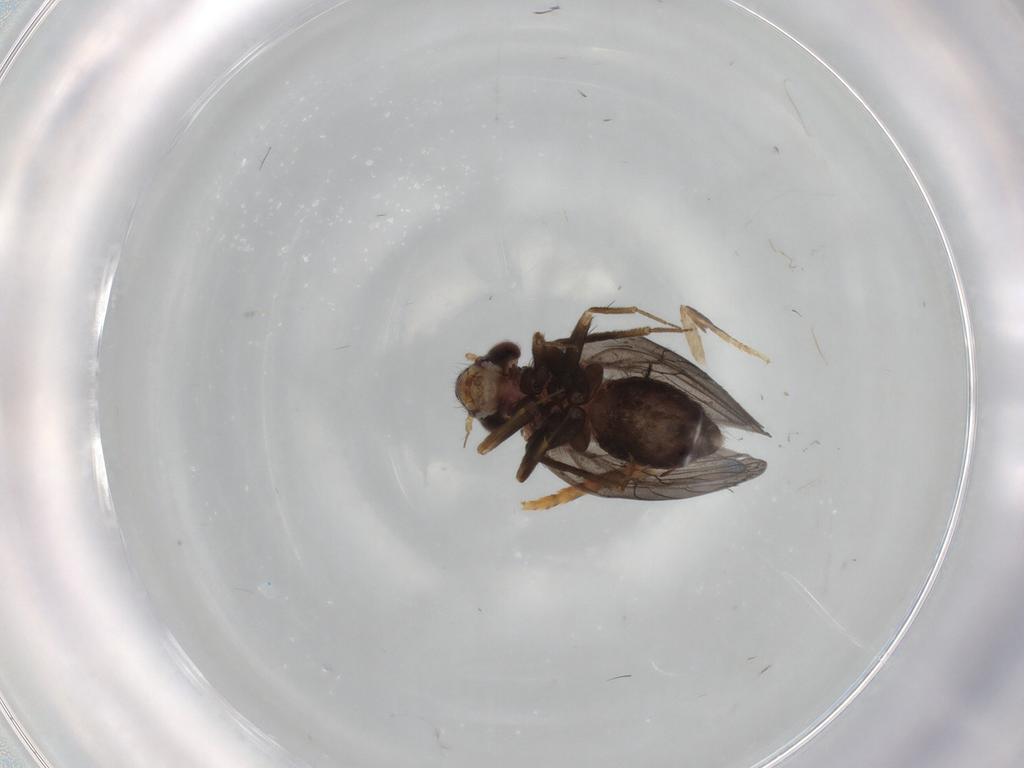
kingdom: Animalia
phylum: Arthropoda
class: Insecta
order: Psocodea
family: Lepidopsocidae
